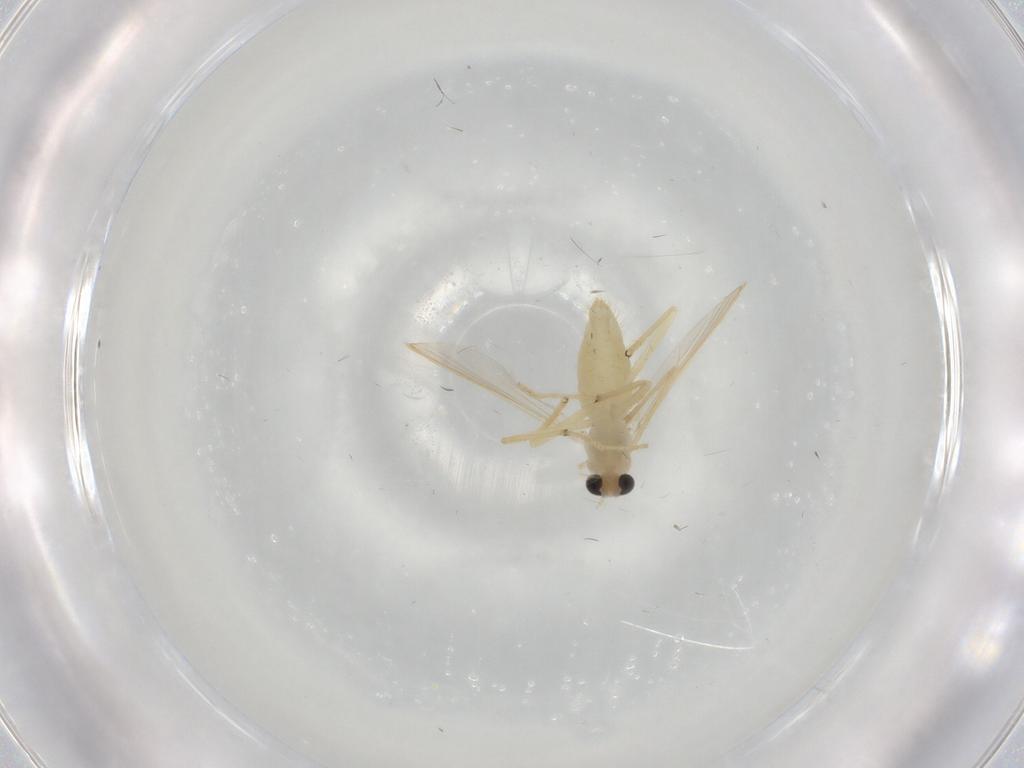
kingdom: Animalia
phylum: Arthropoda
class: Insecta
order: Diptera
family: Chironomidae
